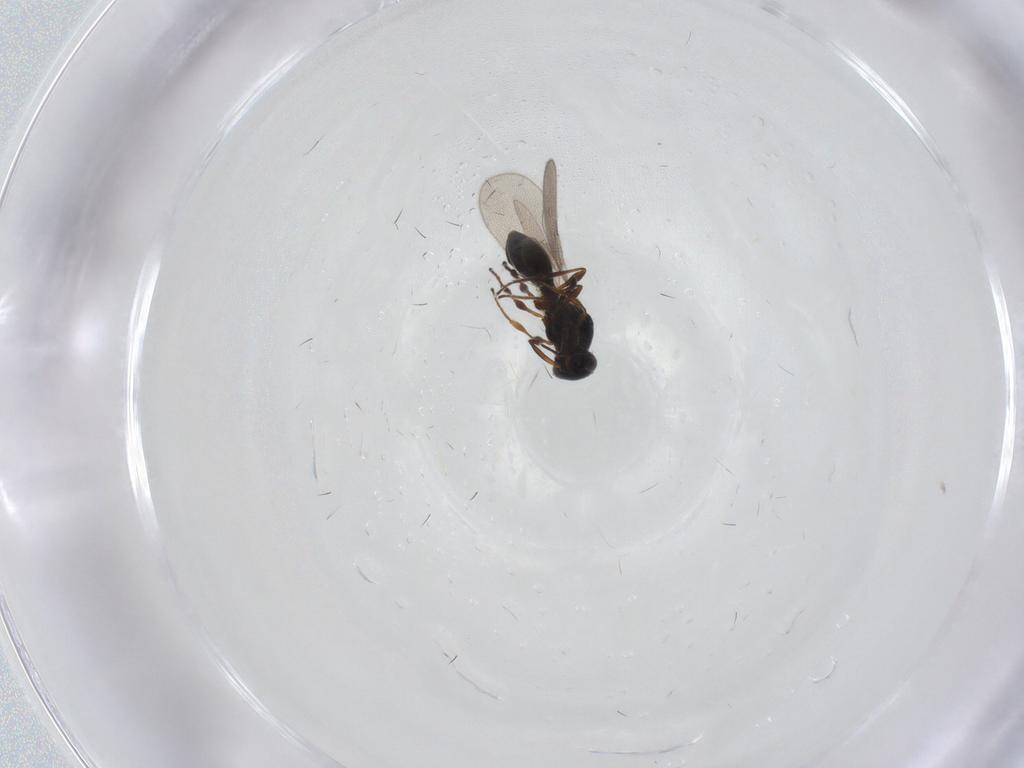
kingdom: Animalia
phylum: Arthropoda
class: Insecta
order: Hymenoptera
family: Platygastridae
